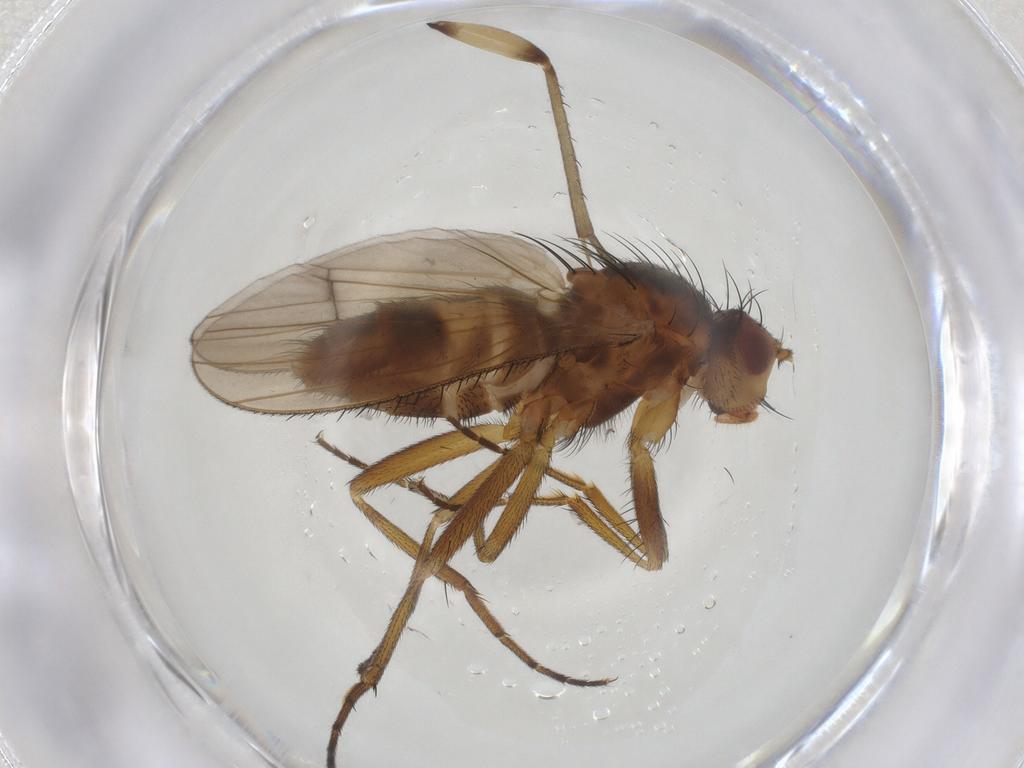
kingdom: Animalia
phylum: Arthropoda
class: Insecta
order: Diptera
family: Heleomyzidae
